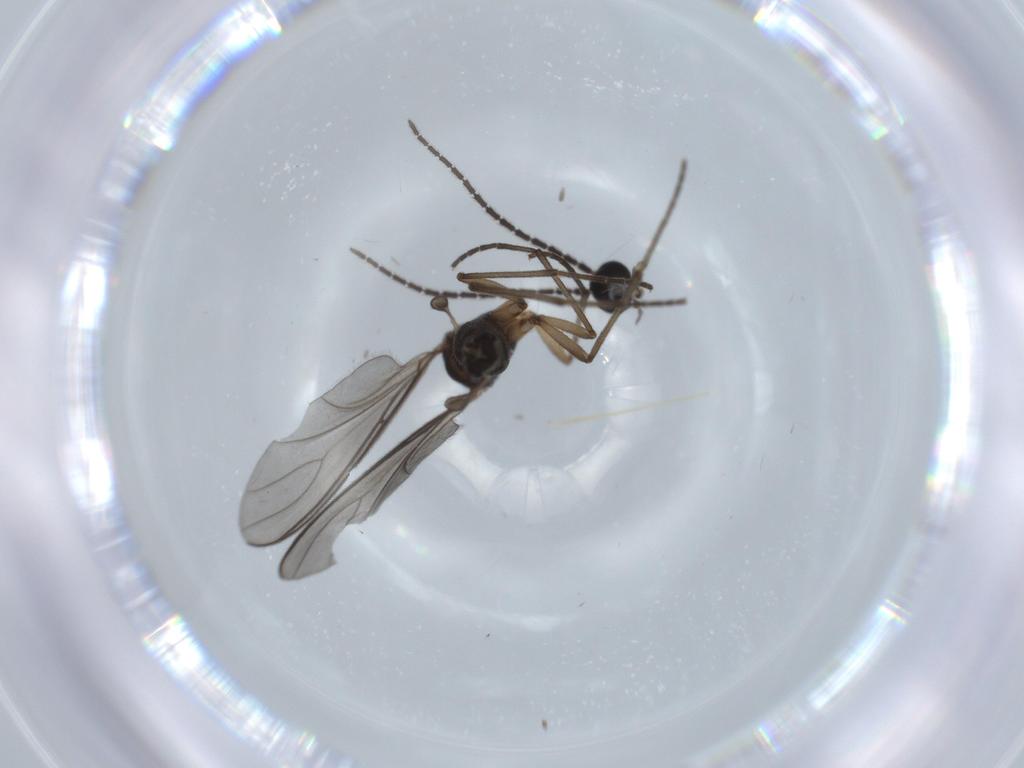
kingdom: Animalia
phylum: Arthropoda
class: Insecta
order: Diptera
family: Sciaridae
